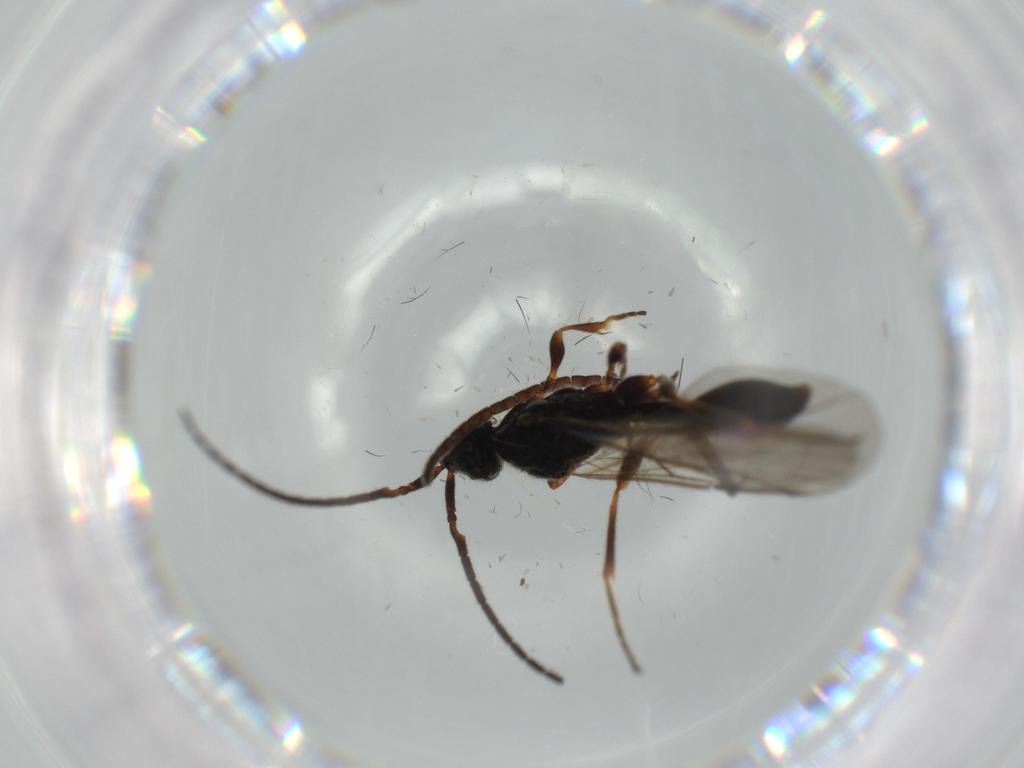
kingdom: Animalia
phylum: Arthropoda
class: Insecta
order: Hymenoptera
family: Braconidae
